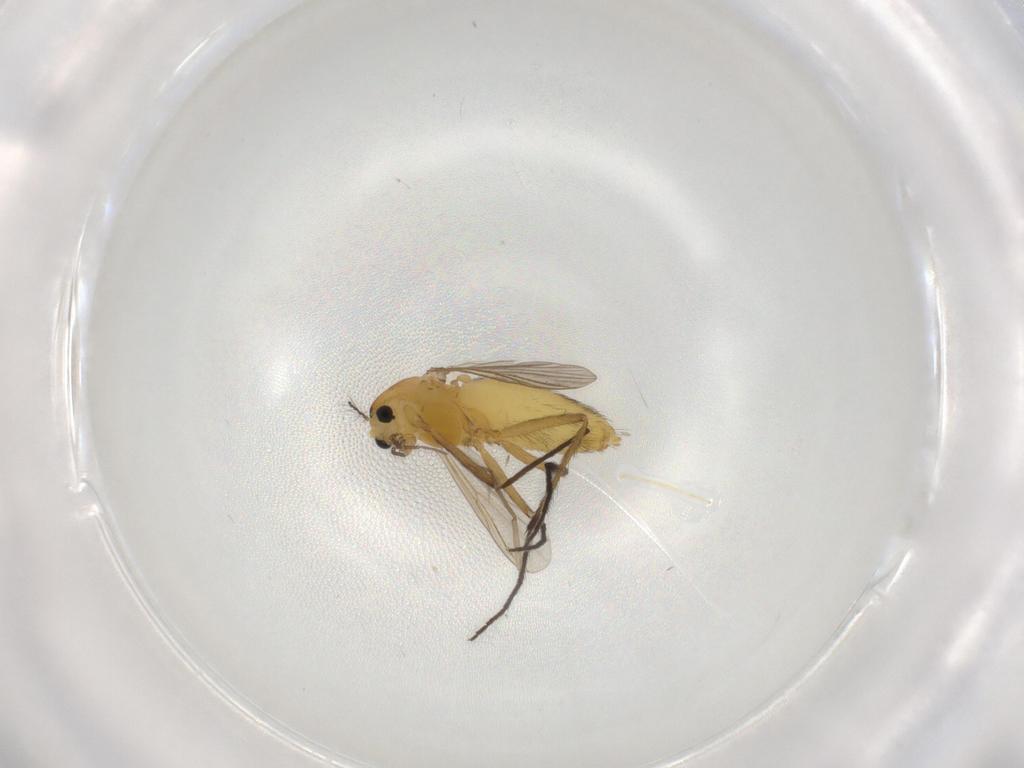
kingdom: Animalia
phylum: Arthropoda
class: Insecta
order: Diptera
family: Chironomidae
